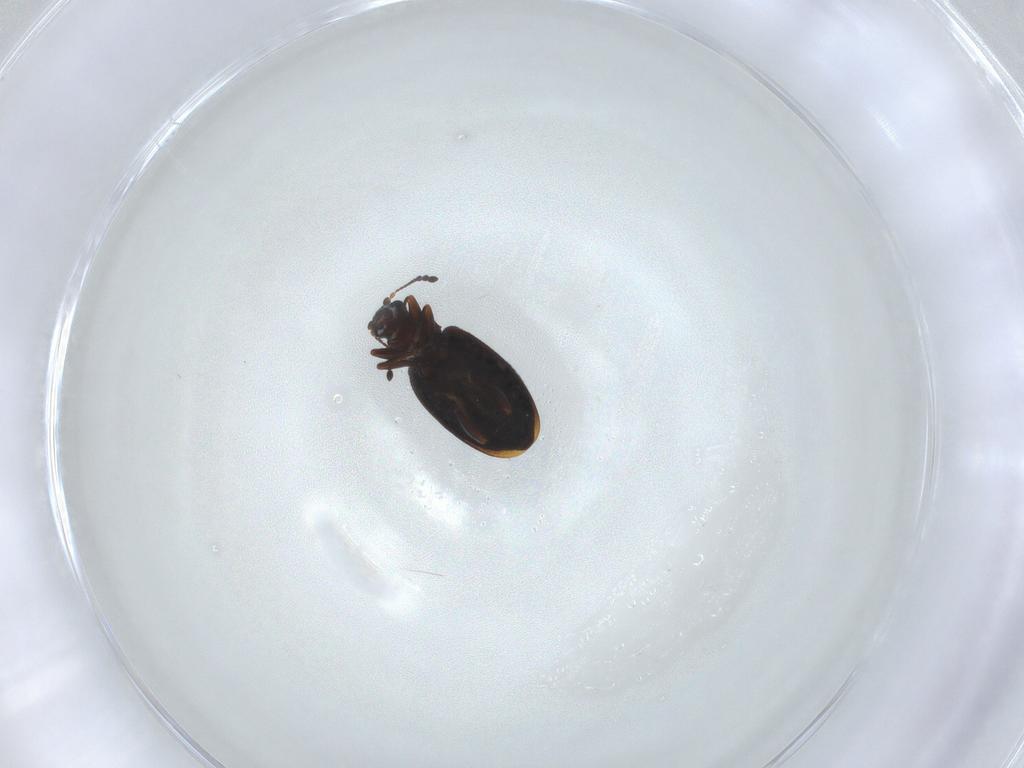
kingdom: Animalia
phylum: Arthropoda
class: Insecta
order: Coleoptera
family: Latridiidae
